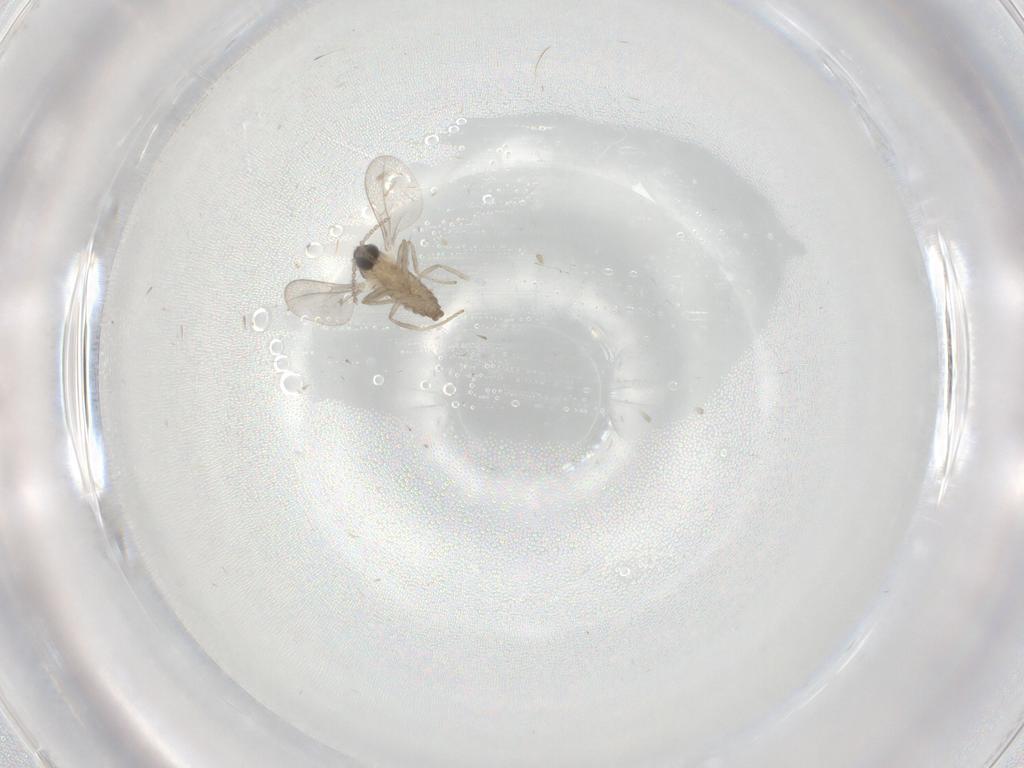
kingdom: Animalia
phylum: Arthropoda
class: Insecta
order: Diptera
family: Cecidomyiidae
